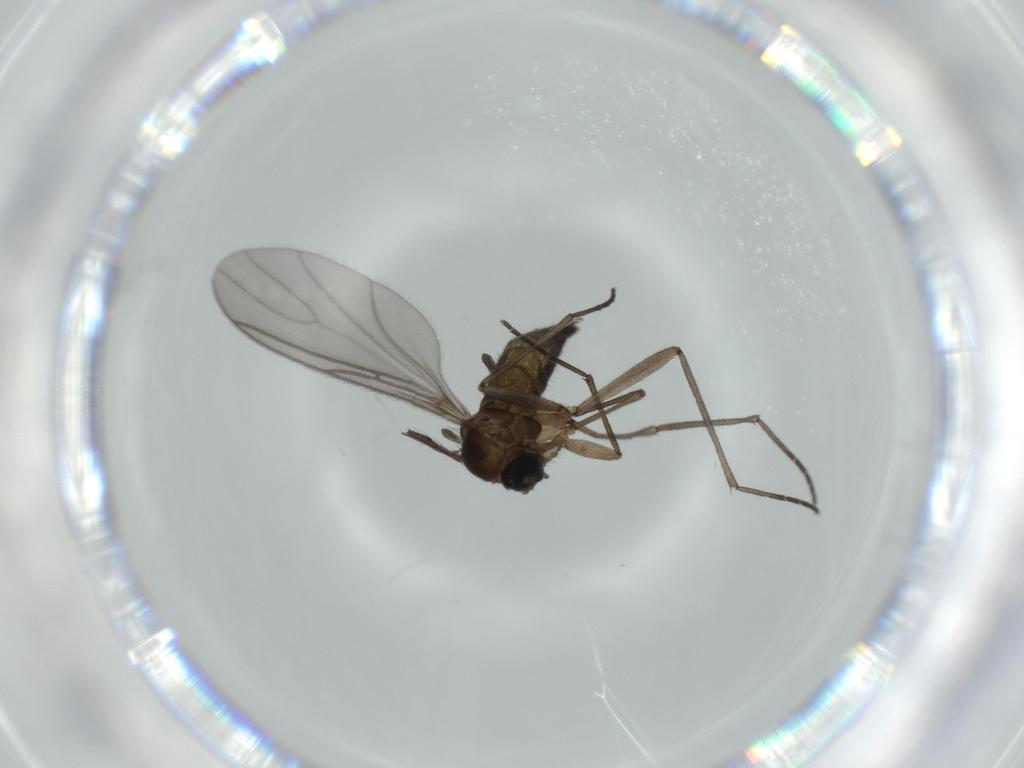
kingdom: Animalia
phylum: Arthropoda
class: Insecta
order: Diptera
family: Sciaridae
